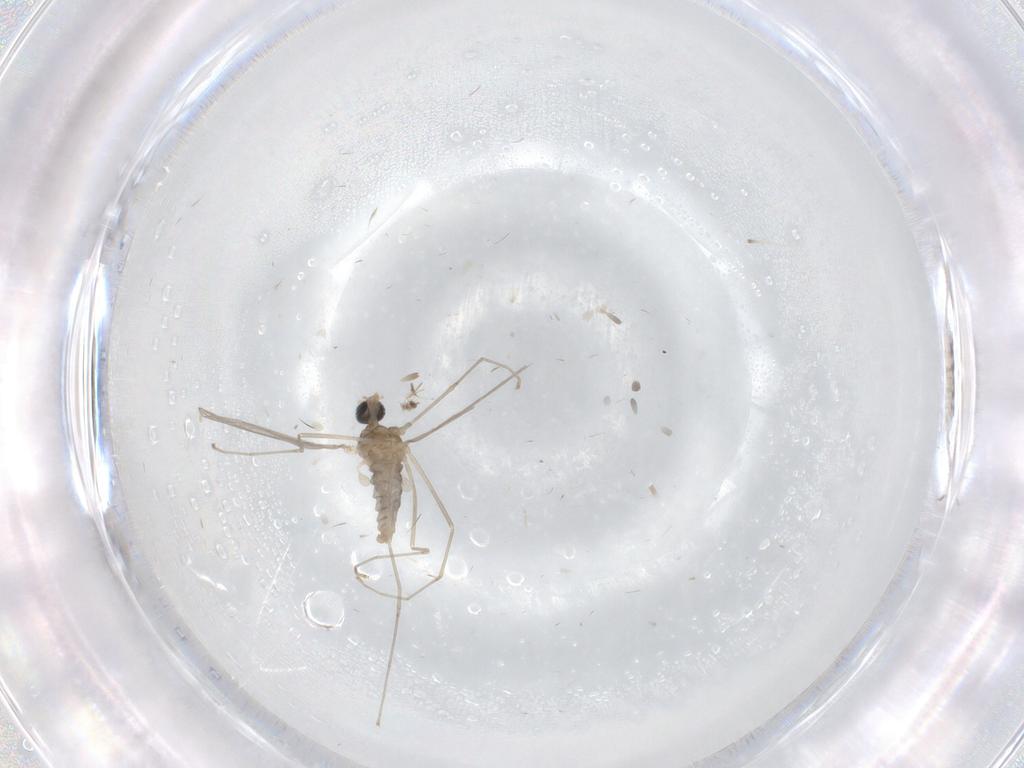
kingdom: Animalia
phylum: Arthropoda
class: Insecta
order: Diptera
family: Cecidomyiidae
